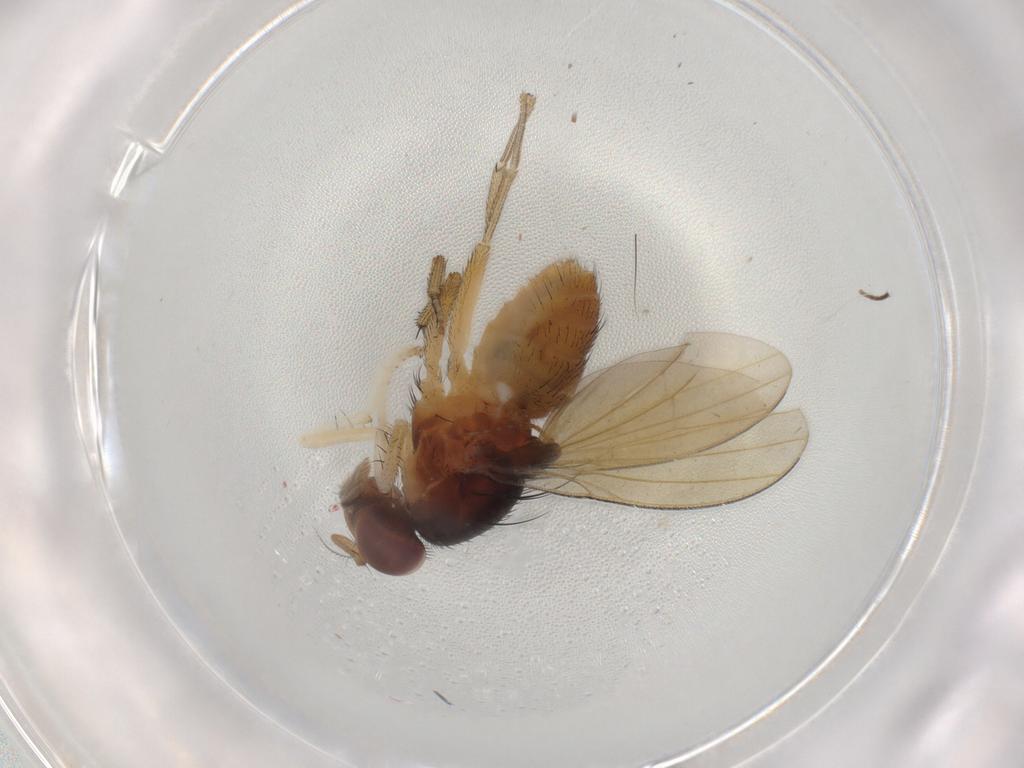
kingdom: Animalia
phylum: Arthropoda
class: Insecta
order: Diptera
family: Lauxaniidae
